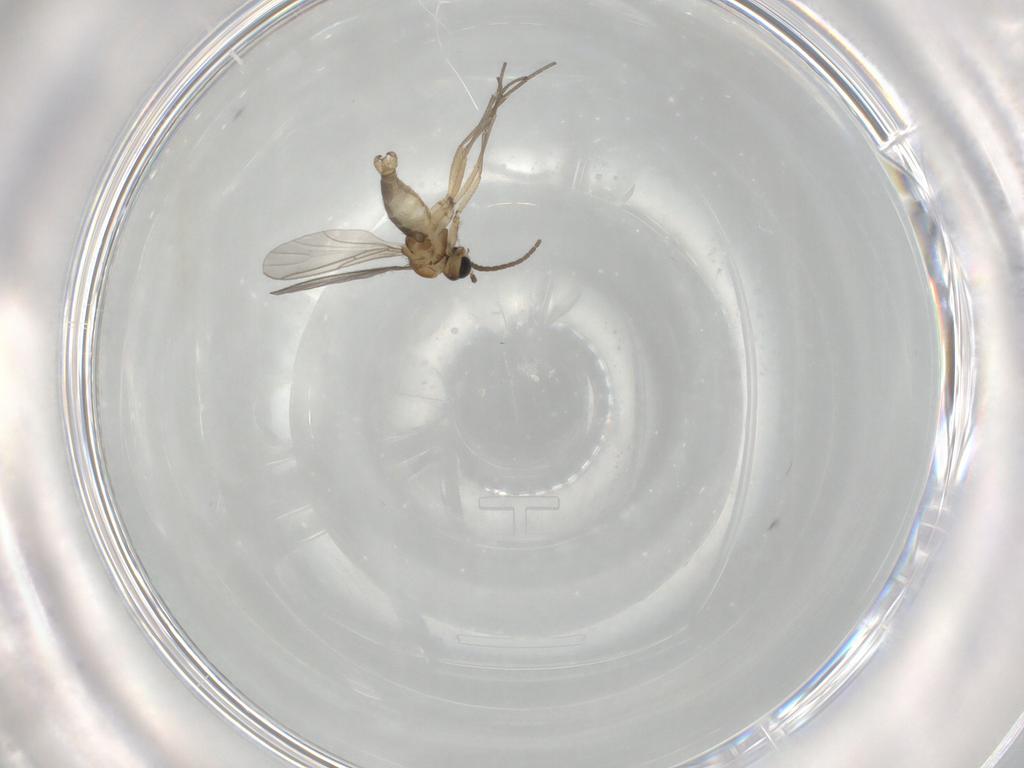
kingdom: Animalia
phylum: Arthropoda
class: Insecta
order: Diptera
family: Sciaridae
